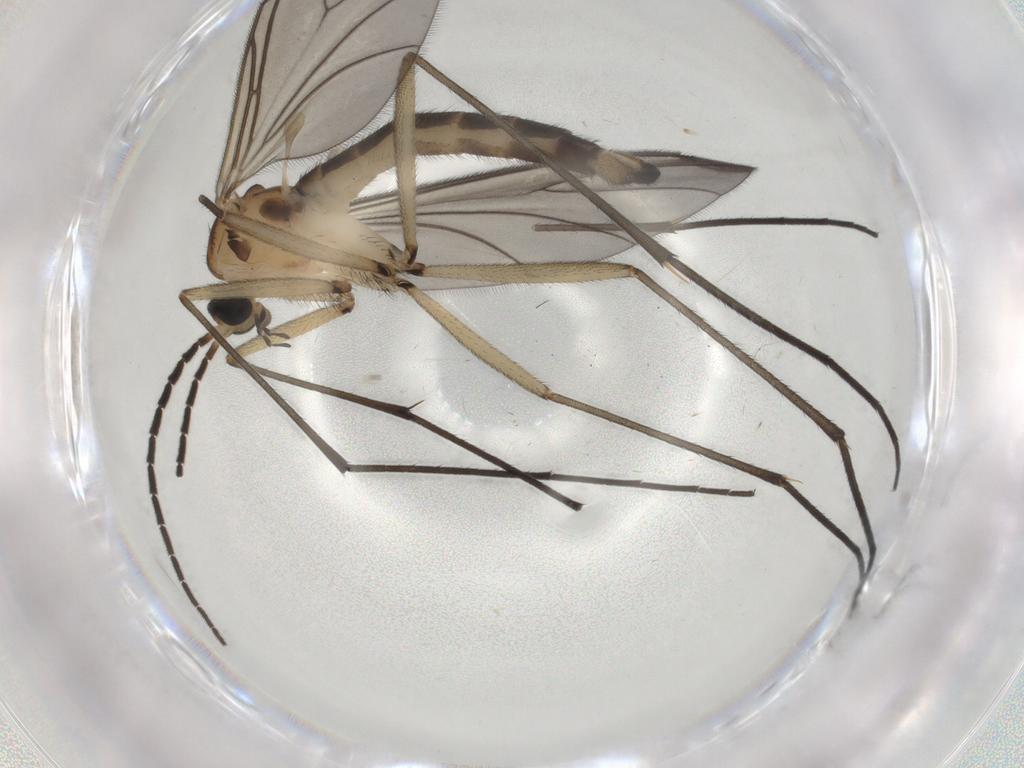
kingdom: Animalia
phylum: Arthropoda
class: Insecta
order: Diptera
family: Sciaridae
